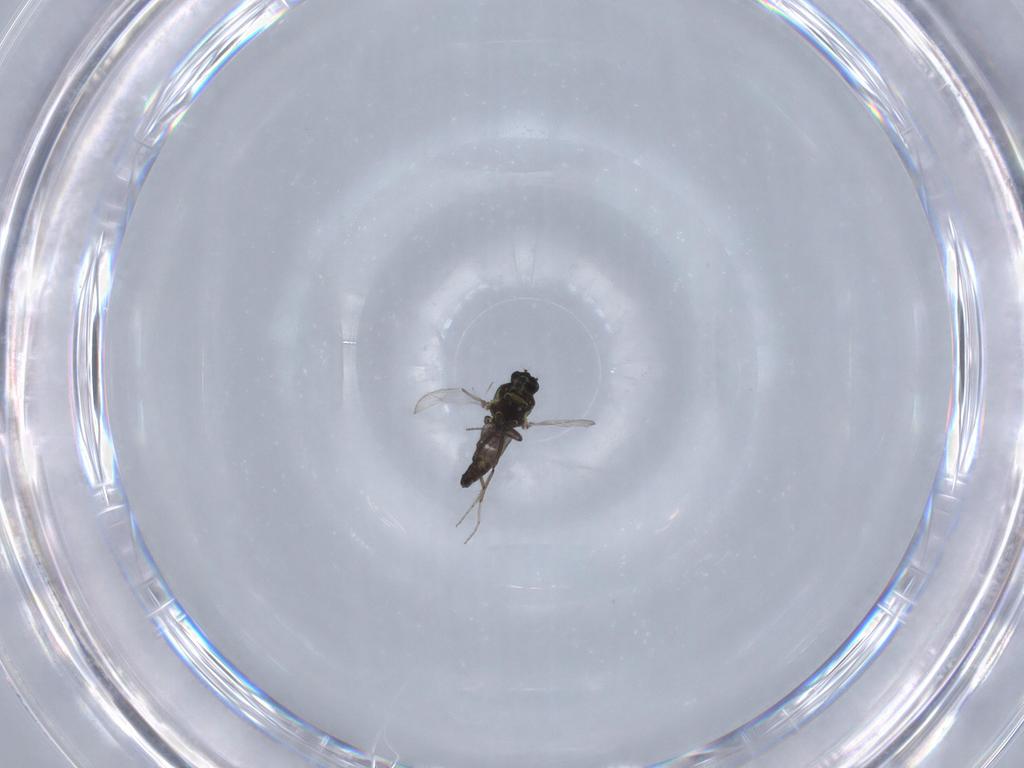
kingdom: Animalia
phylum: Arthropoda
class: Insecta
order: Diptera
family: Ceratopogonidae
